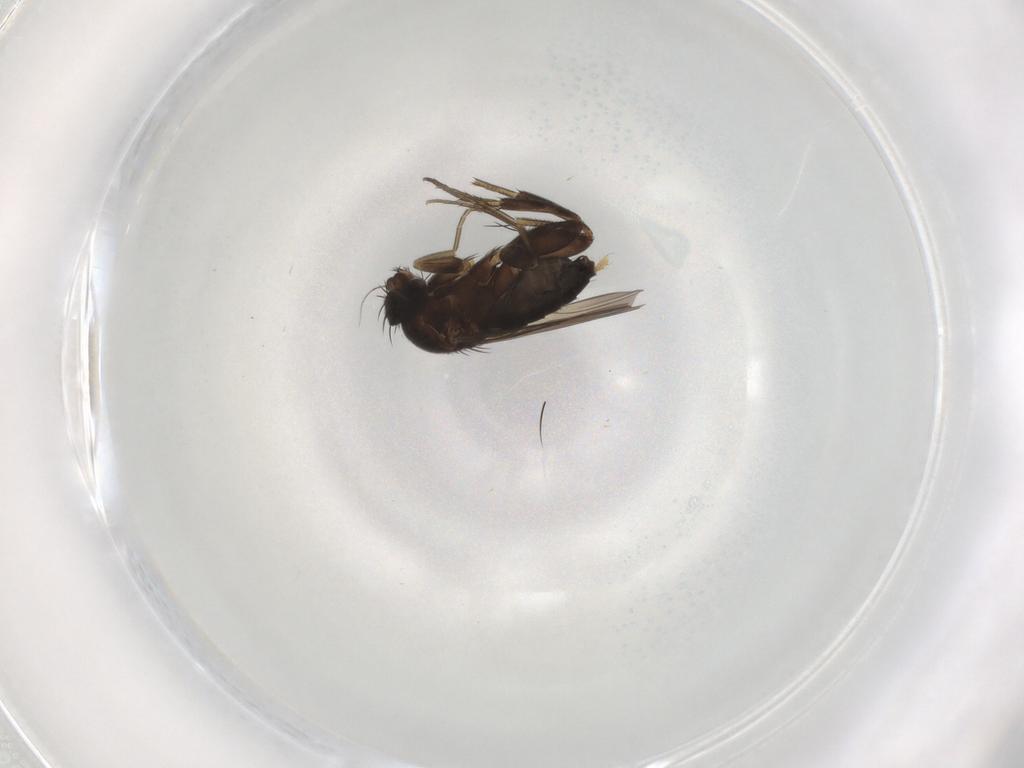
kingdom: Animalia
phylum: Arthropoda
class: Insecta
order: Diptera
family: Phoridae
